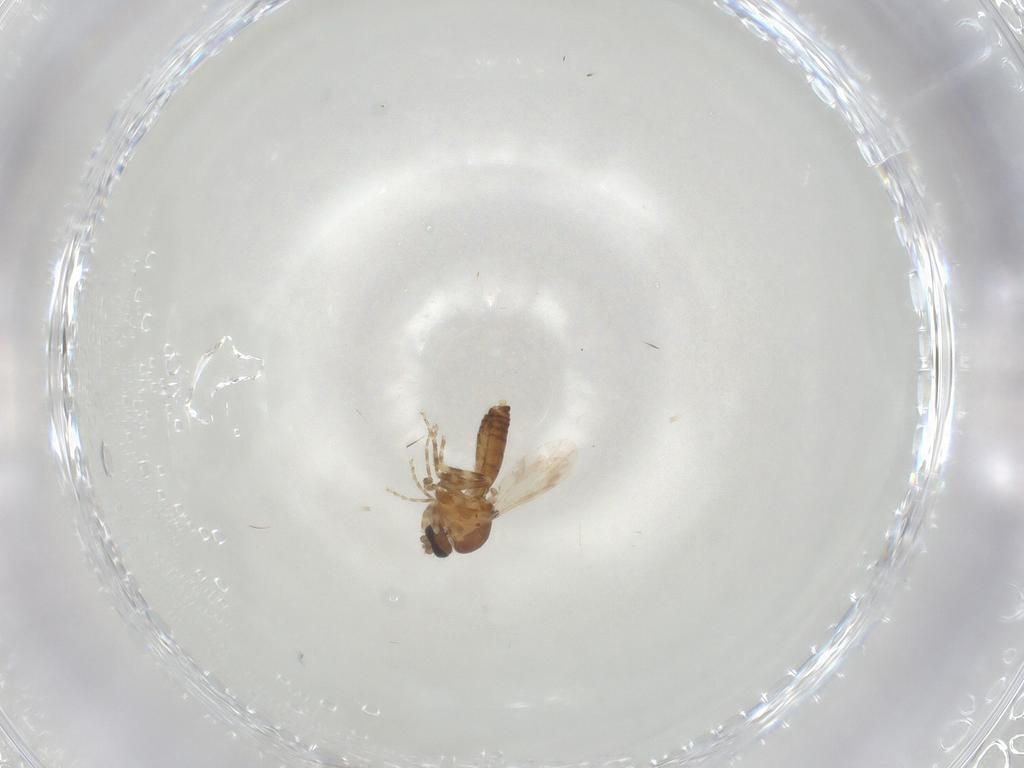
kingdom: Animalia
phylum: Arthropoda
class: Insecta
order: Diptera
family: Ceratopogonidae
